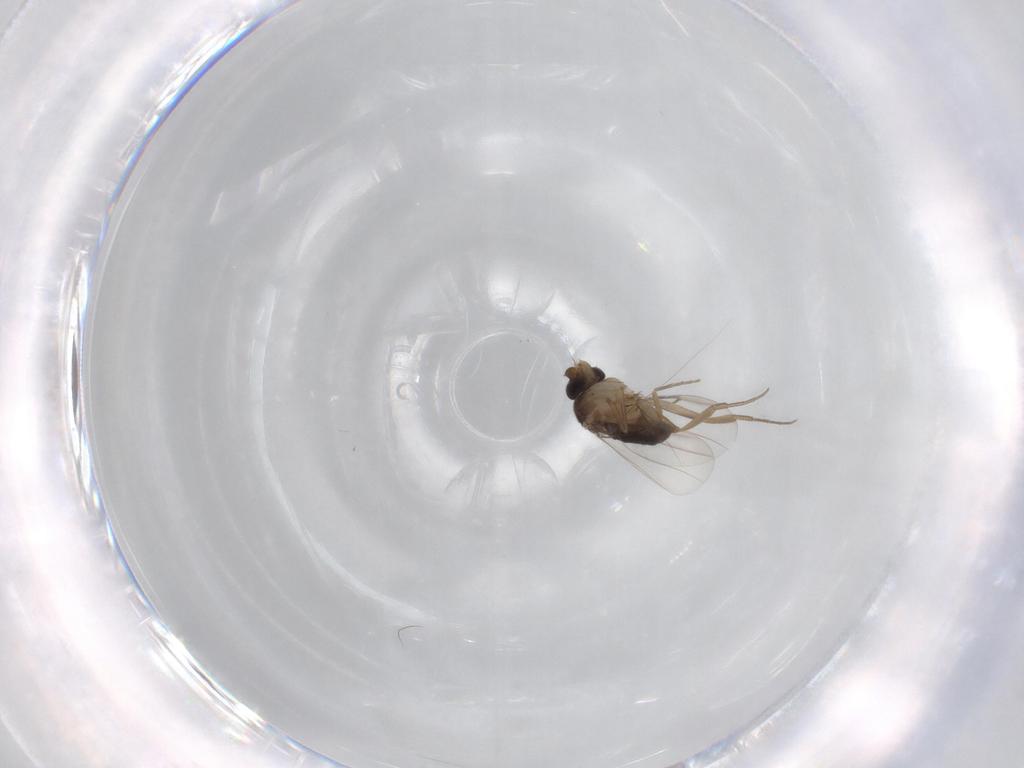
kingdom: Animalia
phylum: Arthropoda
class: Insecta
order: Diptera
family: Phoridae
